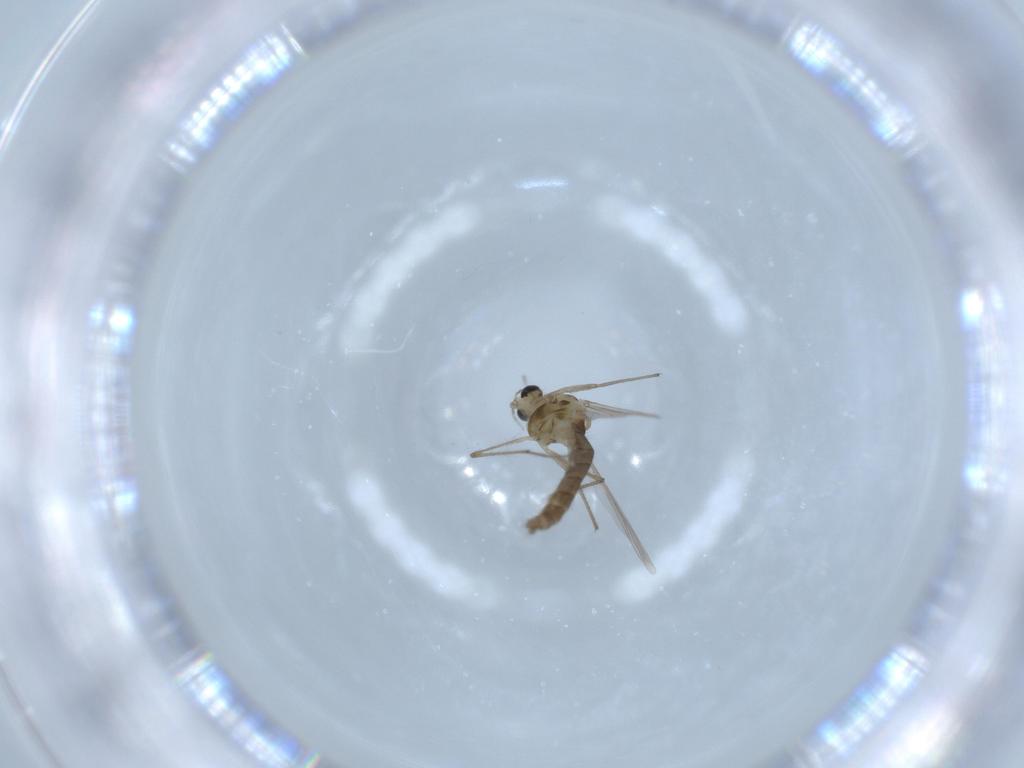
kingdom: Animalia
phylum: Arthropoda
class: Insecta
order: Diptera
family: Chironomidae
